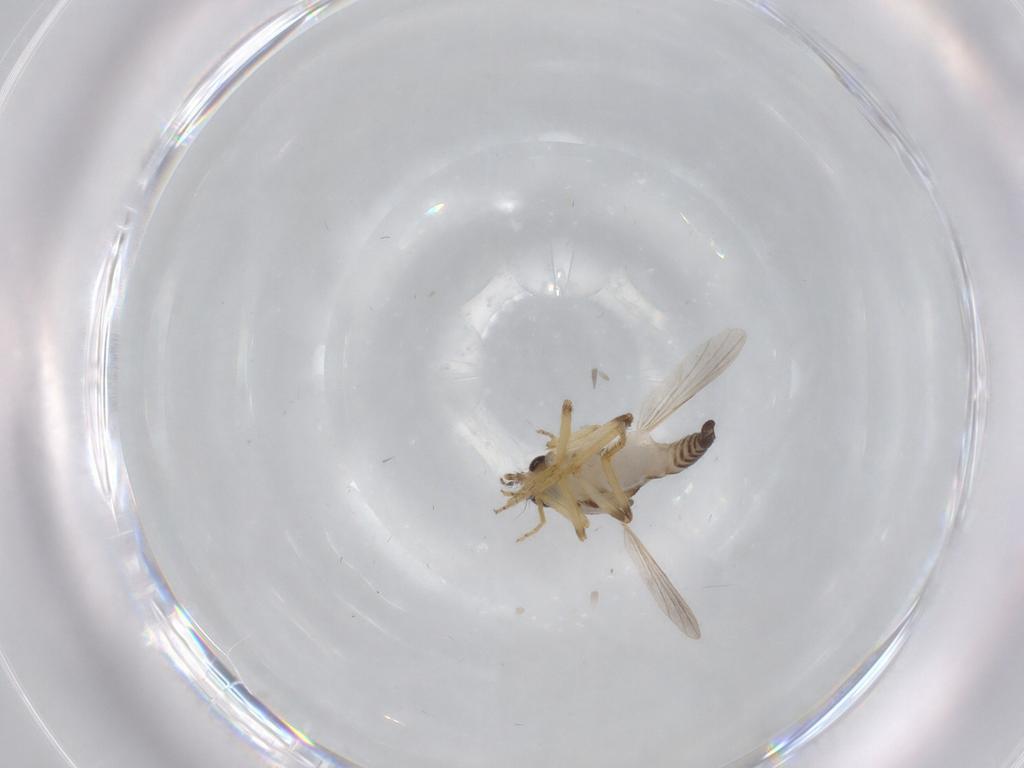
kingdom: Animalia
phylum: Arthropoda
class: Insecta
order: Diptera
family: Ceratopogonidae
